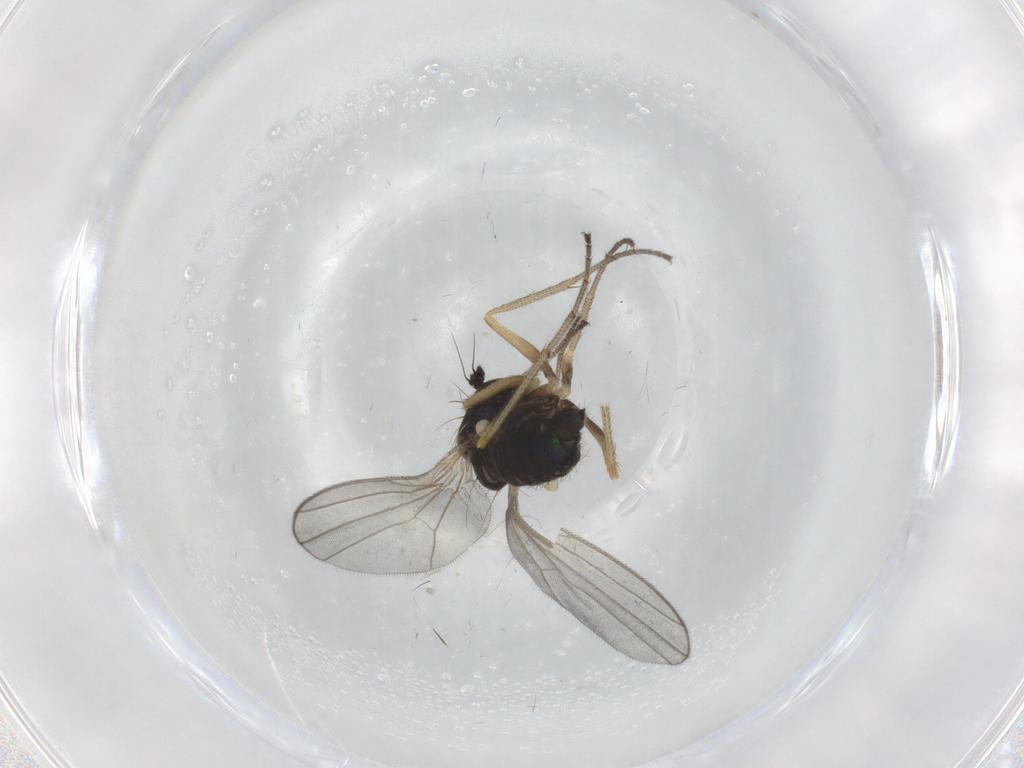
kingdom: Animalia
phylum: Arthropoda
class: Insecta
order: Diptera
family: Dolichopodidae
